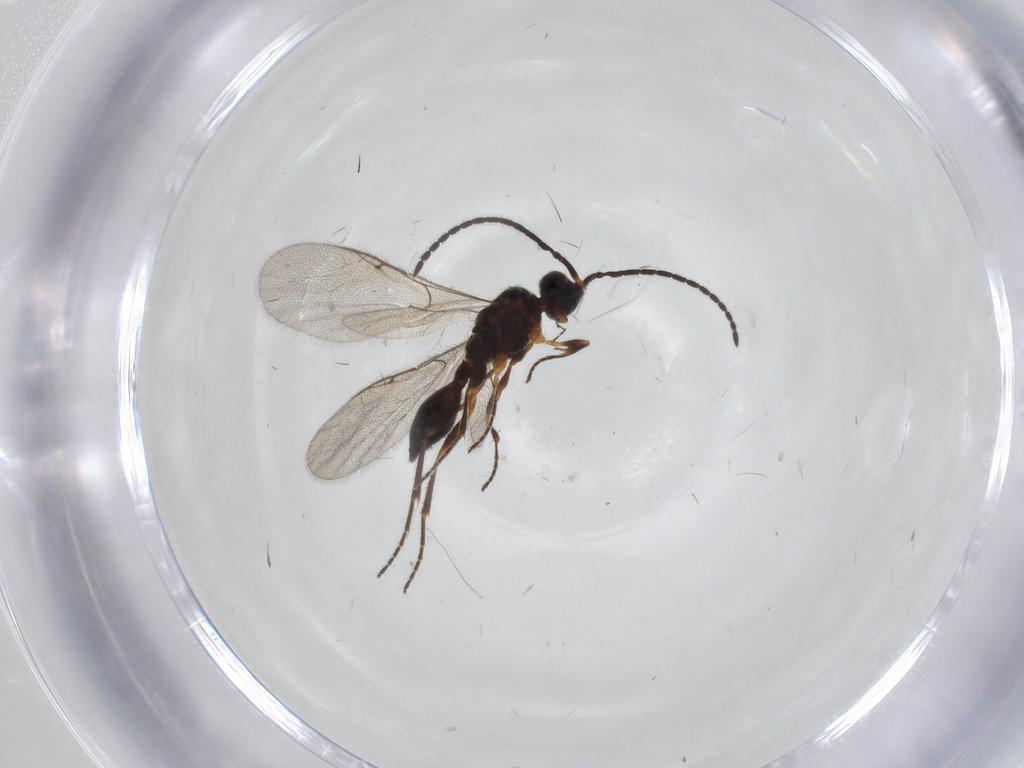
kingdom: Animalia
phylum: Arthropoda
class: Insecta
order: Hymenoptera
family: Diapriidae
